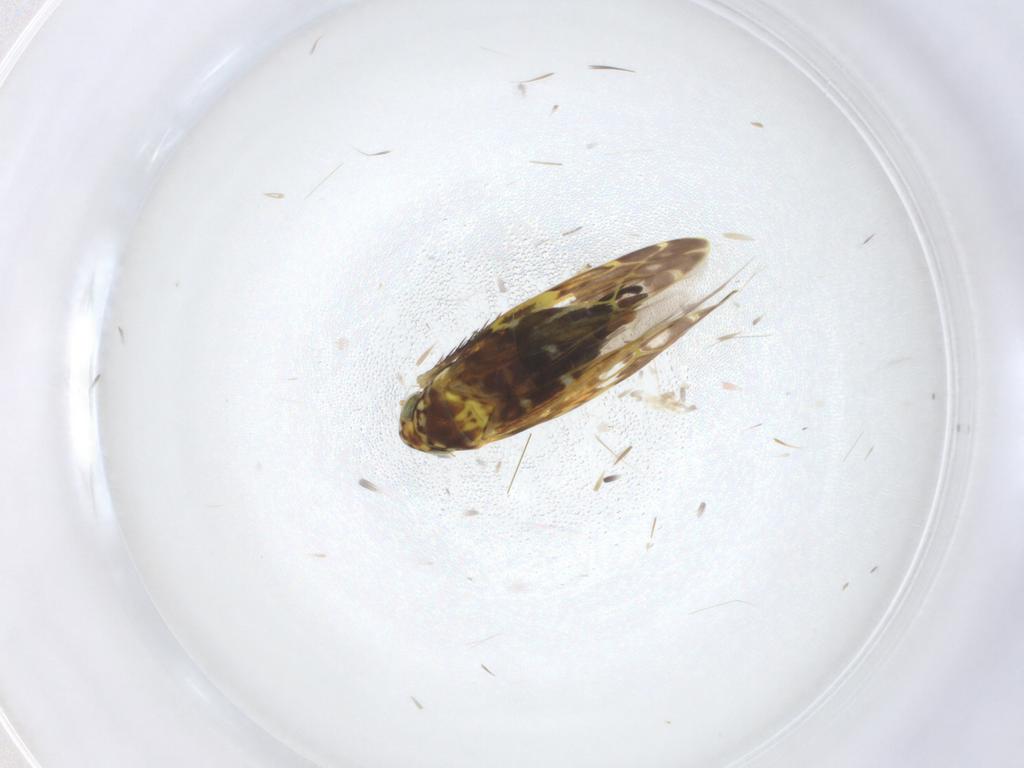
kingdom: Animalia
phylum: Arthropoda
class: Insecta
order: Hemiptera
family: Cicadellidae
